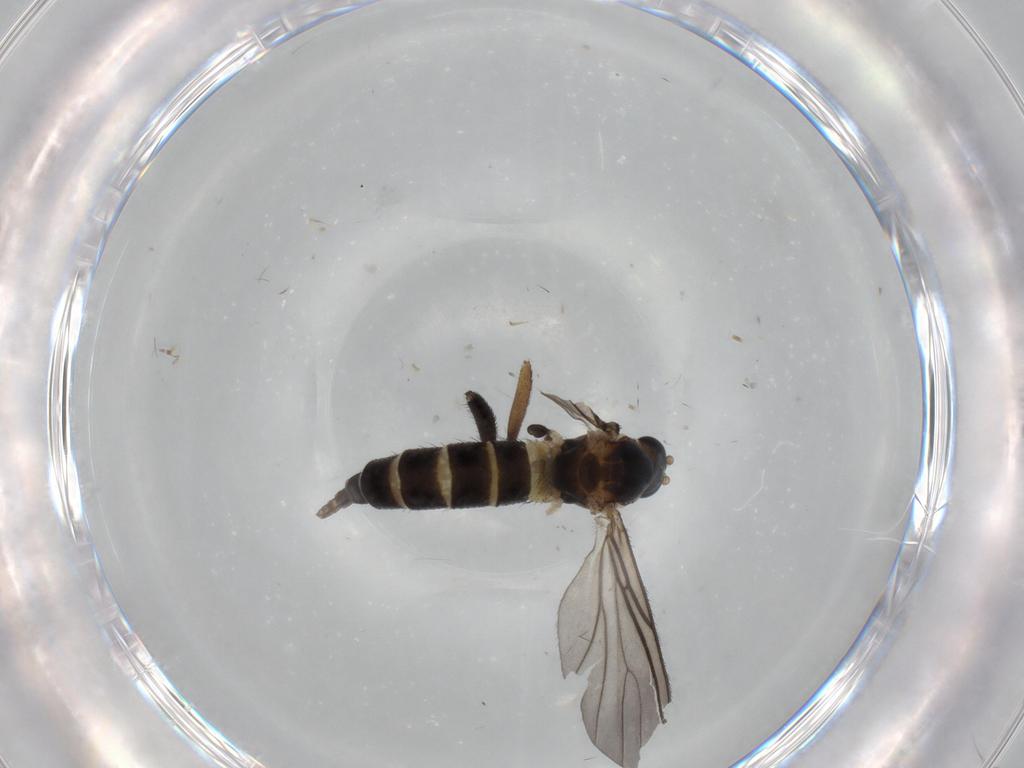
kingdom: Animalia
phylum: Arthropoda
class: Insecta
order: Diptera
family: Sciaridae
